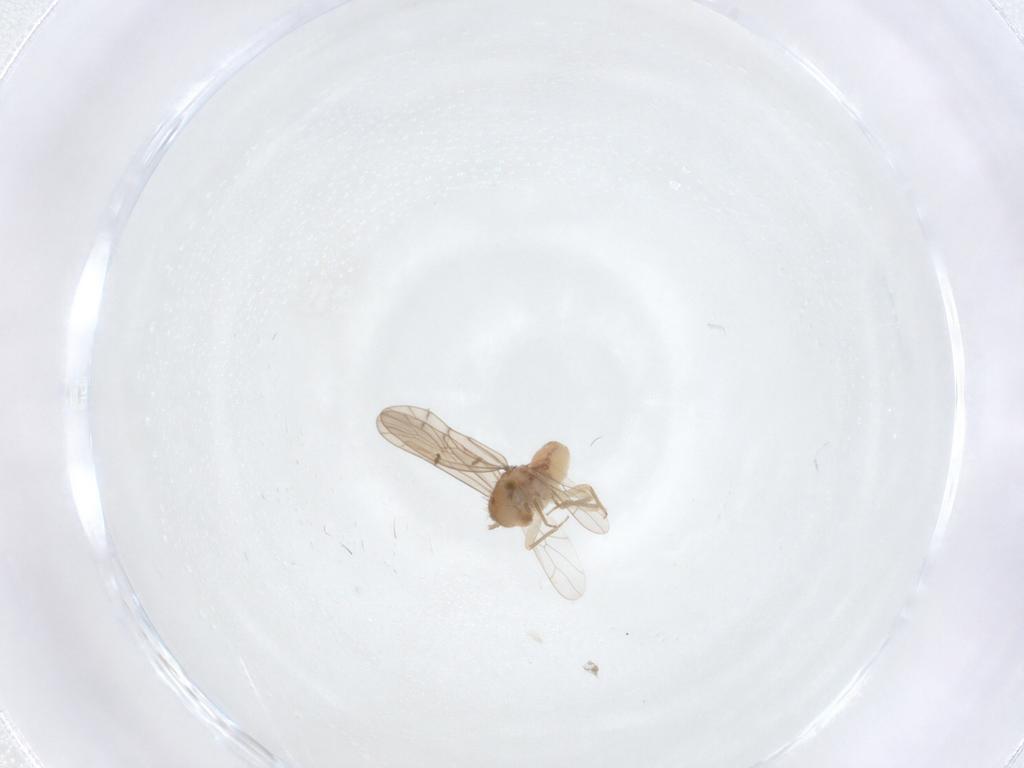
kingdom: Animalia
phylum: Arthropoda
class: Insecta
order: Psocodea
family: Ectopsocidae
